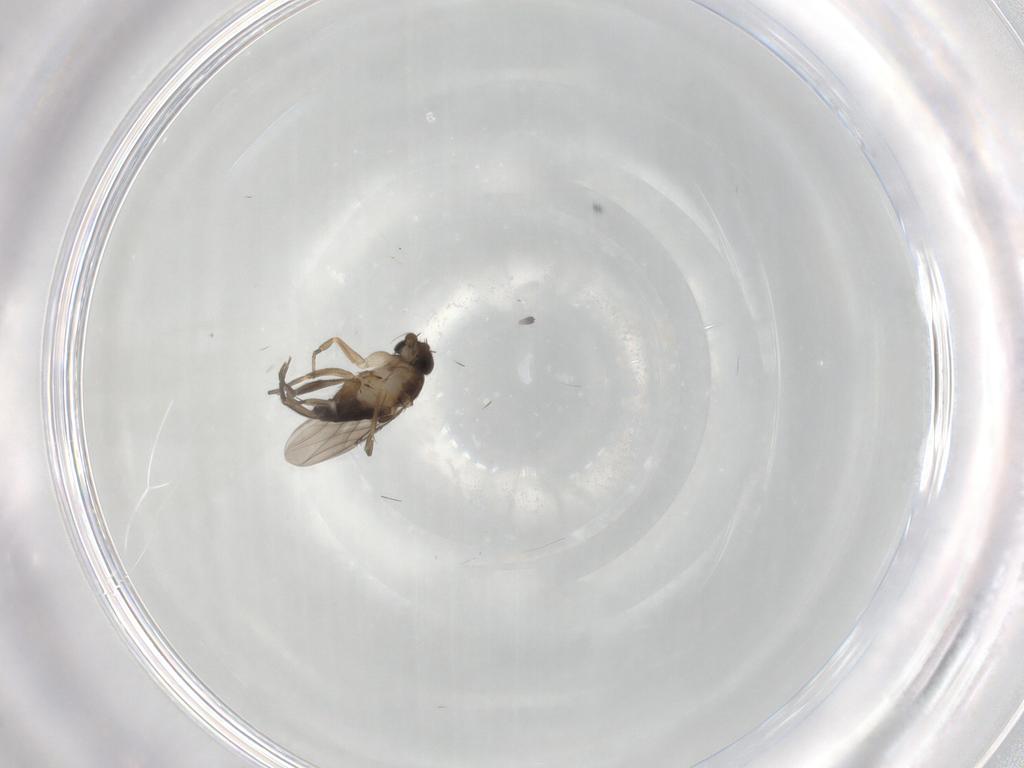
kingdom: Animalia
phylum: Arthropoda
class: Insecta
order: Diptera
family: Phoridae
